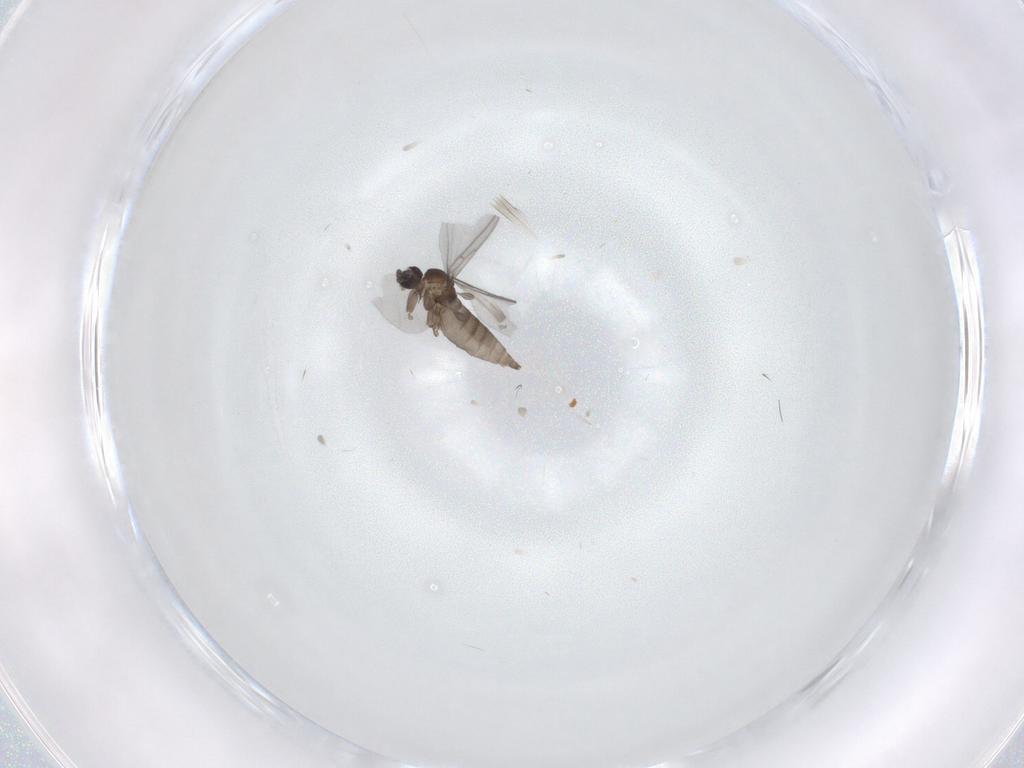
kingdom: Animalia
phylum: Arthropoda
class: Insecta
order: Diptera
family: Sciaridae
